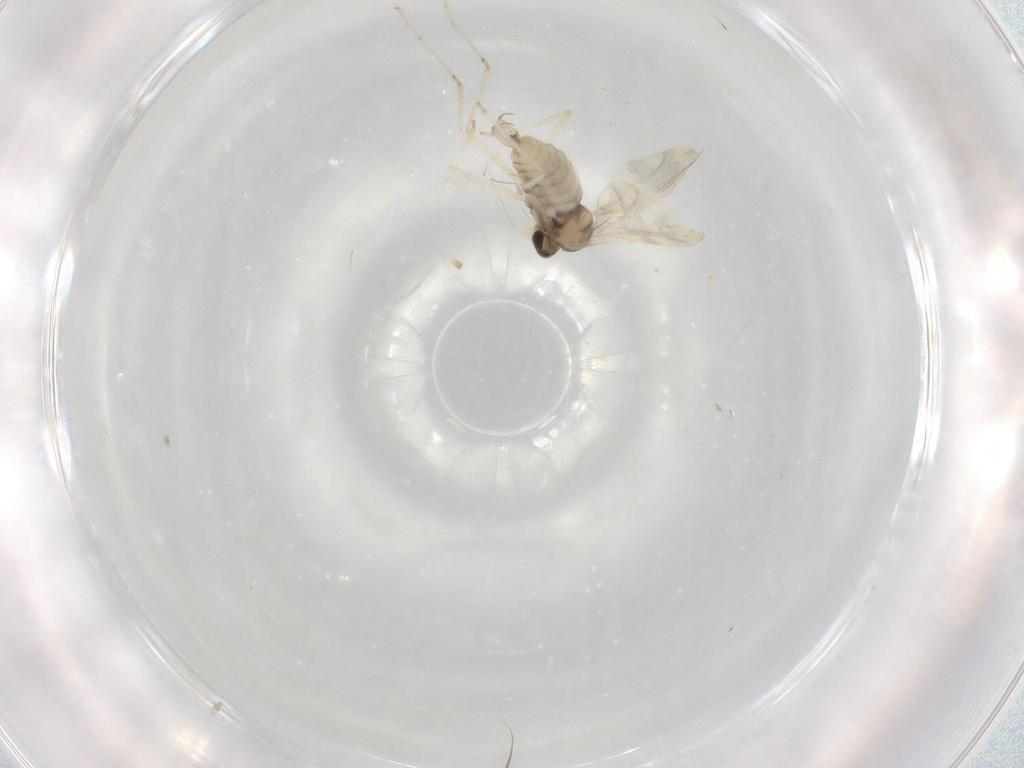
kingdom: Animalia
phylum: Arthropoda
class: Insecta
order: Diptera
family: Cecidomyiidae
